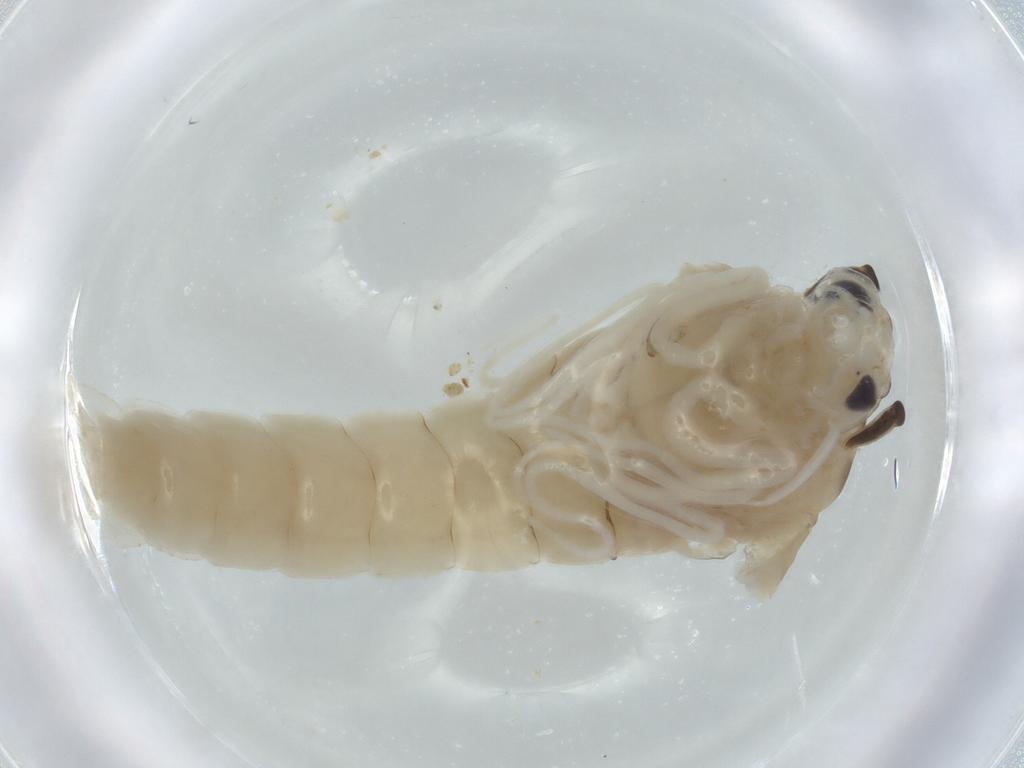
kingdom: Animalia
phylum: Arthropoda
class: Insecta
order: Diptera
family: Chironomidae
